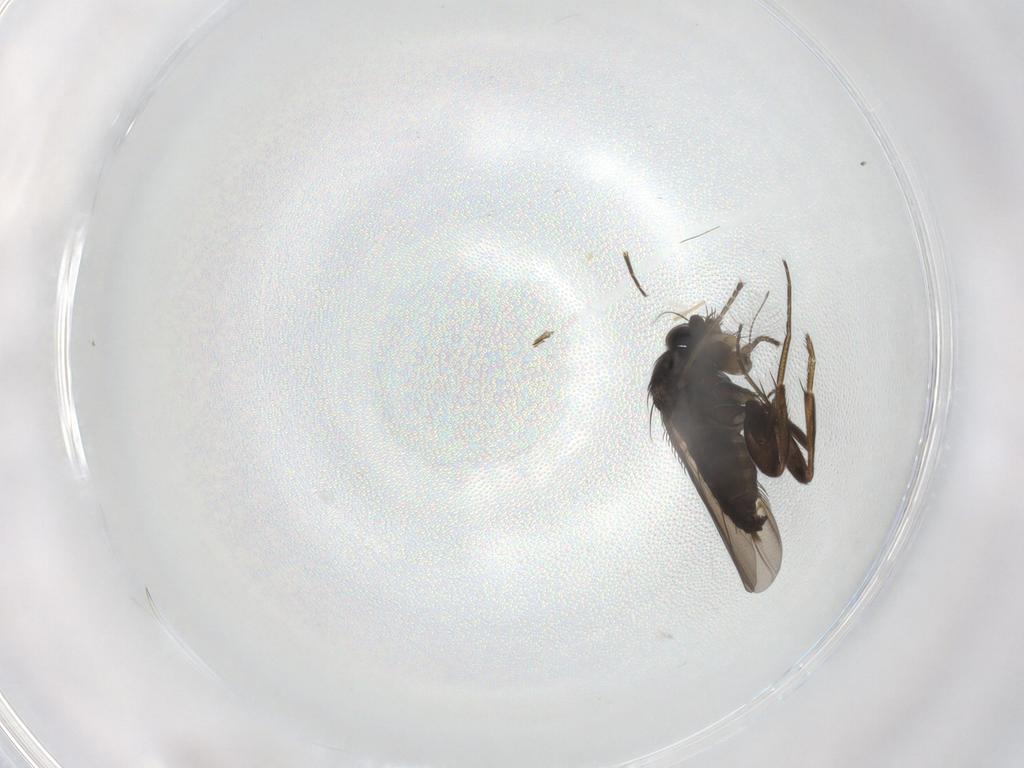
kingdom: Animalia
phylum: Arthropoda
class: Insecta
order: Diptera
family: Phoridae
